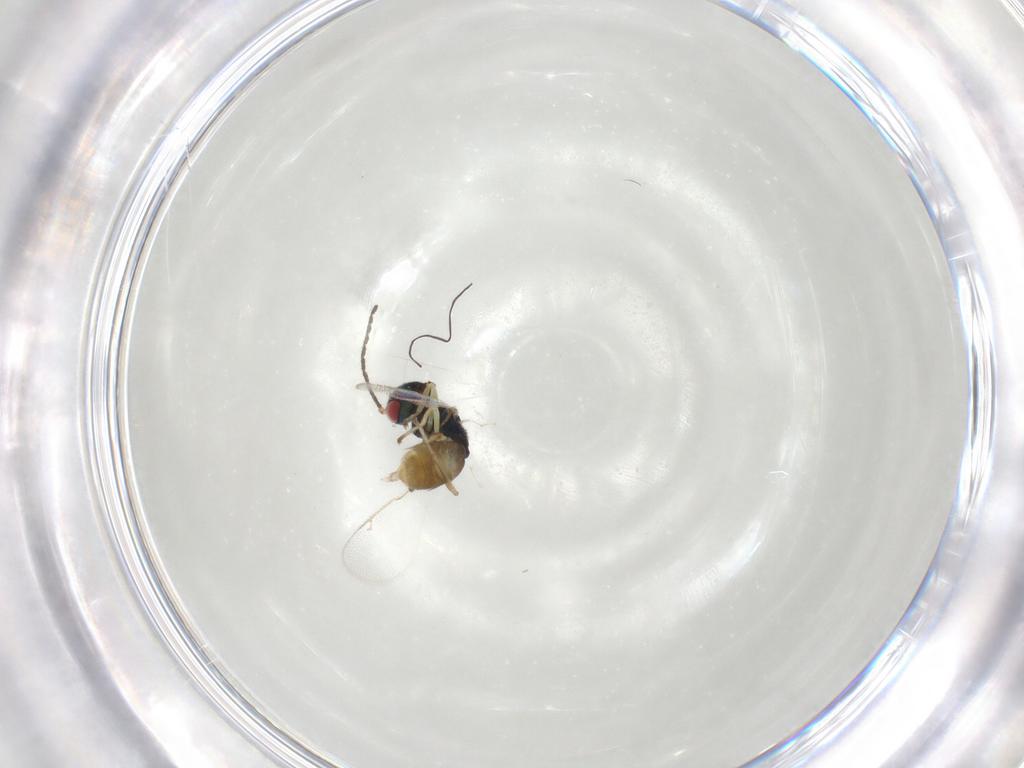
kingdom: Animalia
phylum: Arthropoda
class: Insecta
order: Hymenoptera
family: Pteromalidae
